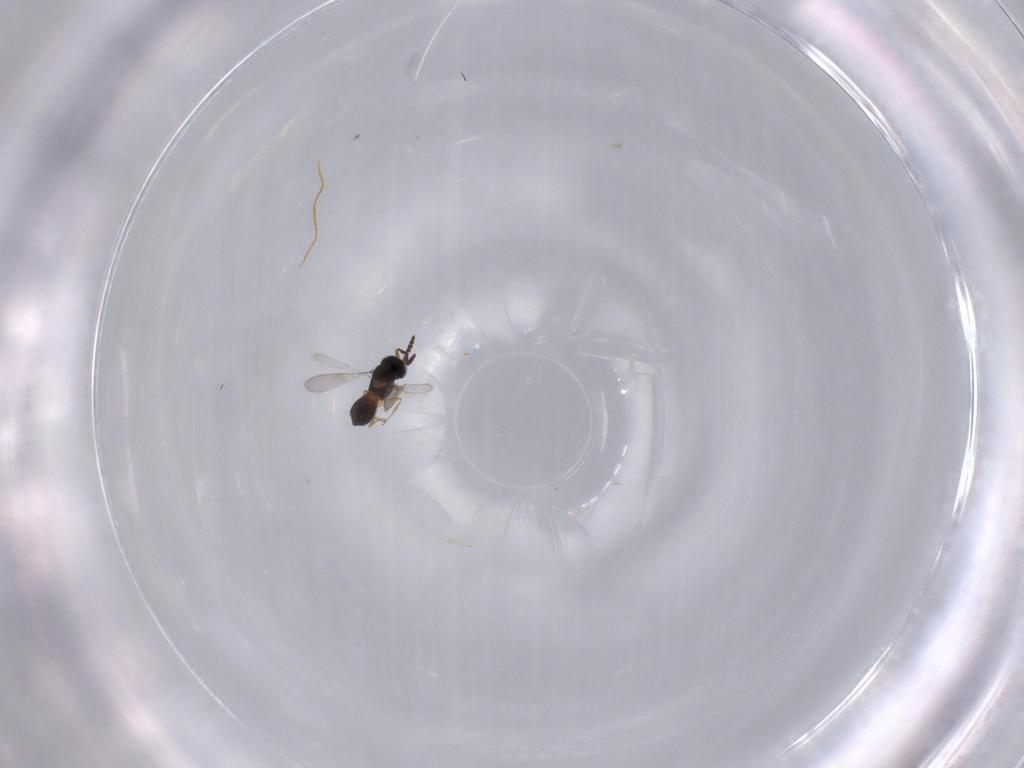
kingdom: Animalia
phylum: Arthropoda
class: Insecta
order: Hymenoptera
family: Scelionidae
